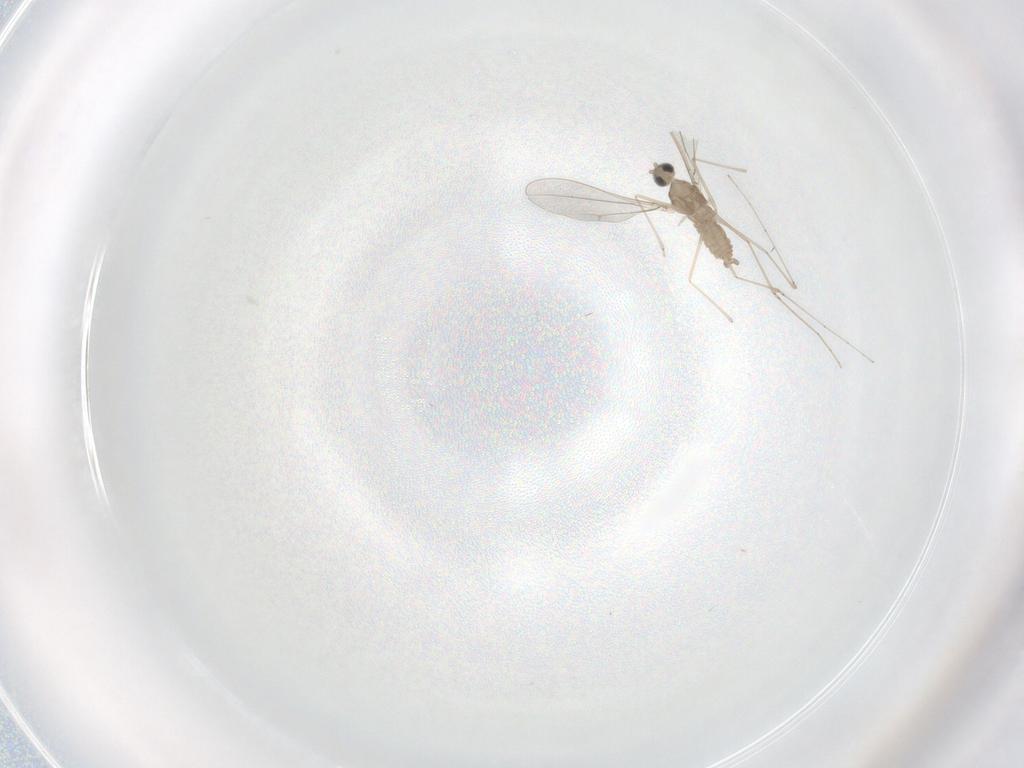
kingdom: Animalia
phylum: Arthropoda
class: Insecta
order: Diptera
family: Cecidomyiidae
